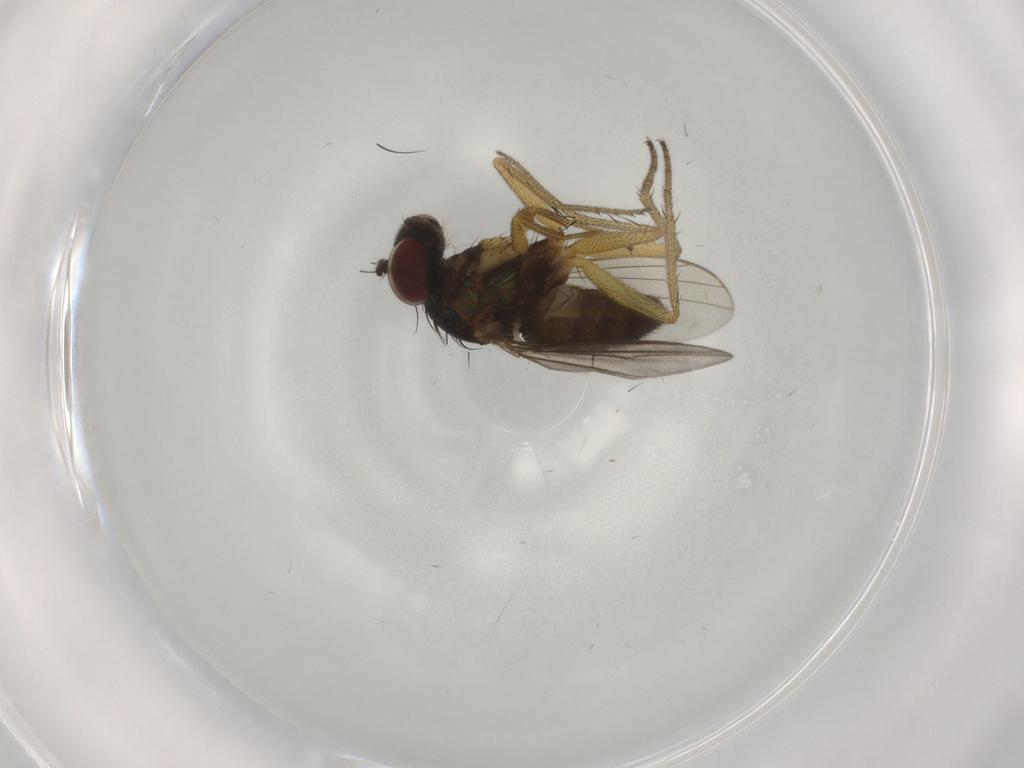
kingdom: Animalia
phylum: Arthropoda
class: Insecta
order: Diptera
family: Dolichopodidae
